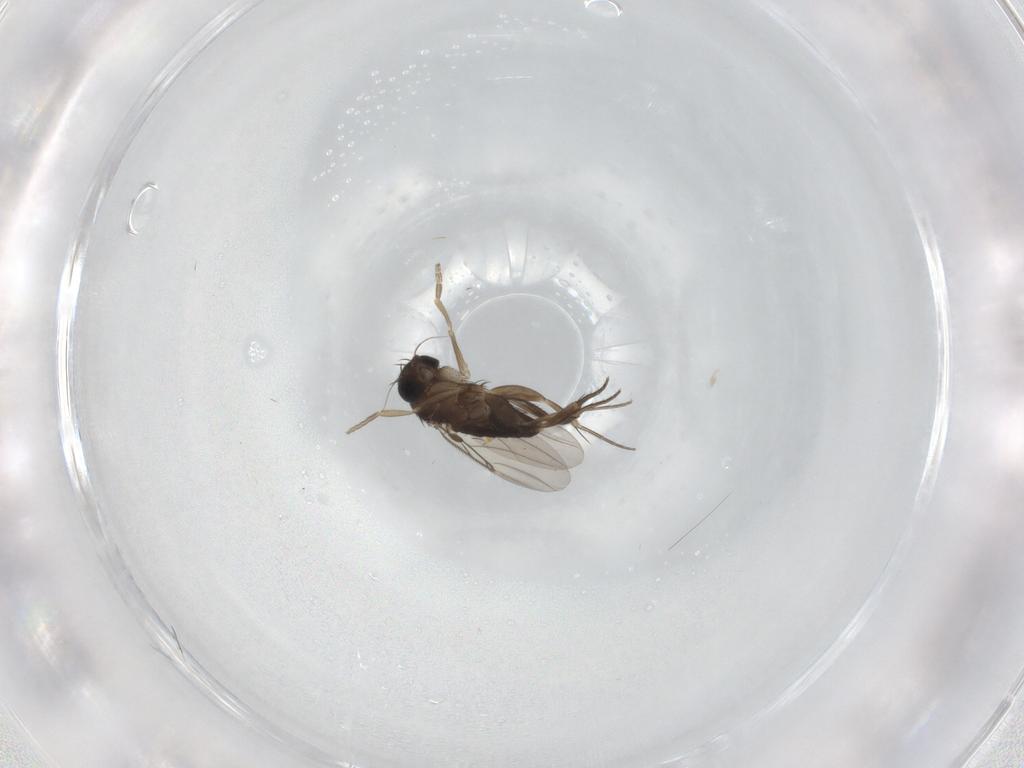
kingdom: Animalia
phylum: Arthropoda
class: Insecta
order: Diptera
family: Phoridae
